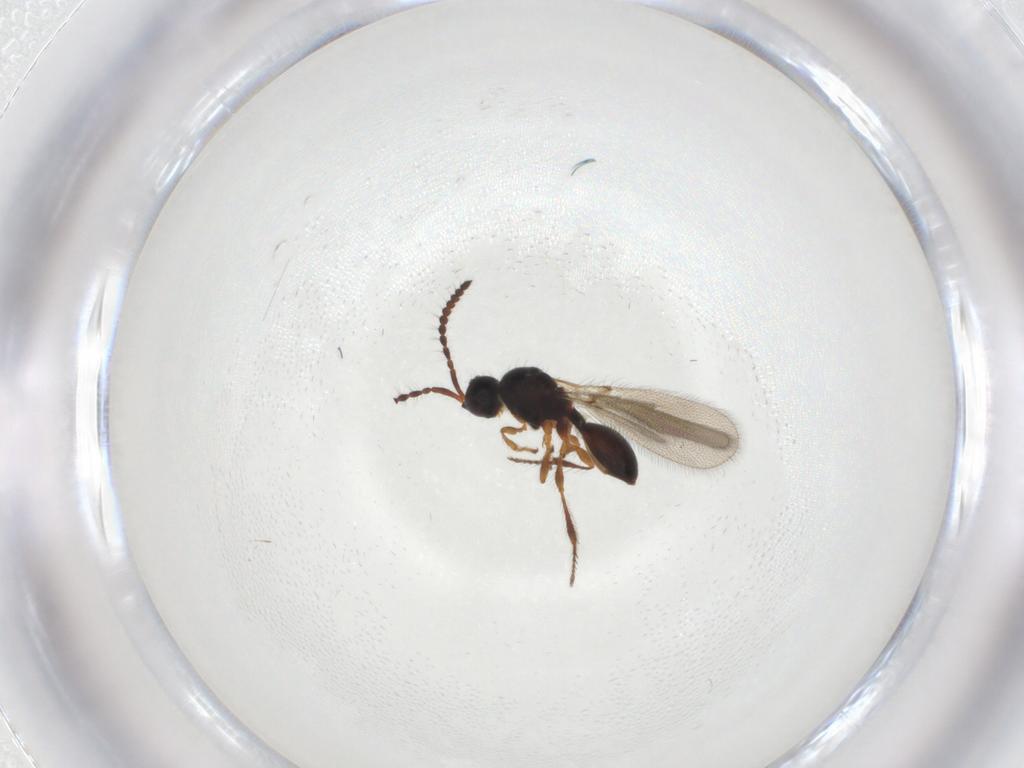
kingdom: Animalia
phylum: Arthropoda
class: Insecta
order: Hymenoptera
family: Diapriidae
